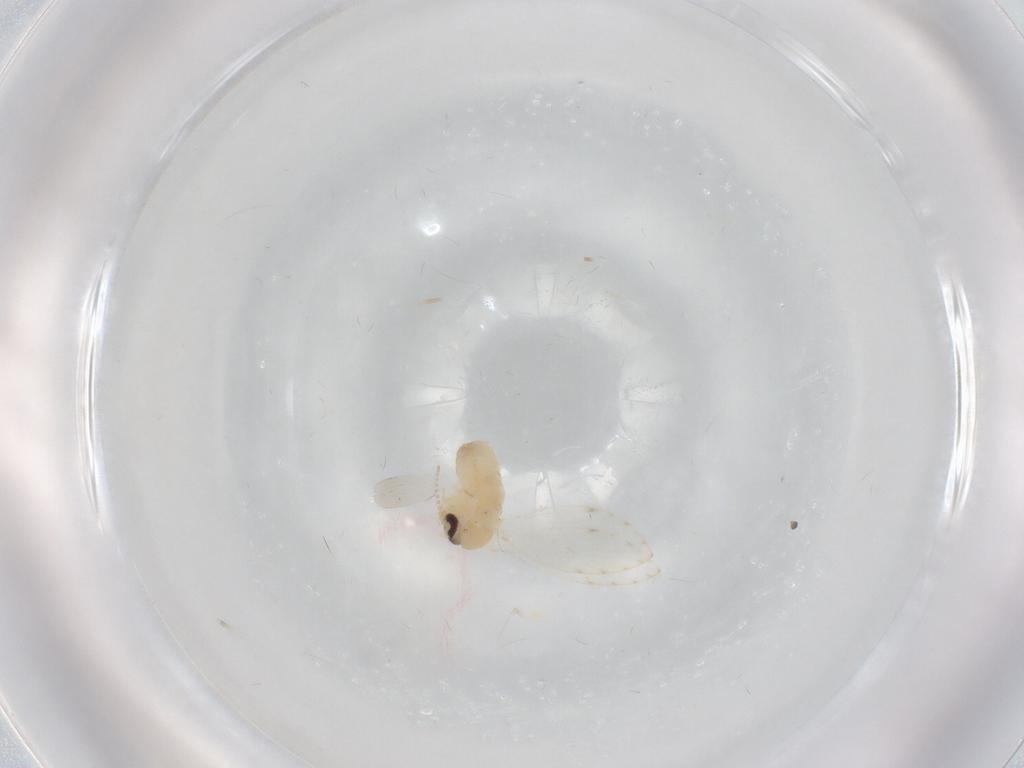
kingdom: Animalia
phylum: Arthropoda
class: Insecta
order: Diptera
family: Psychodidae
